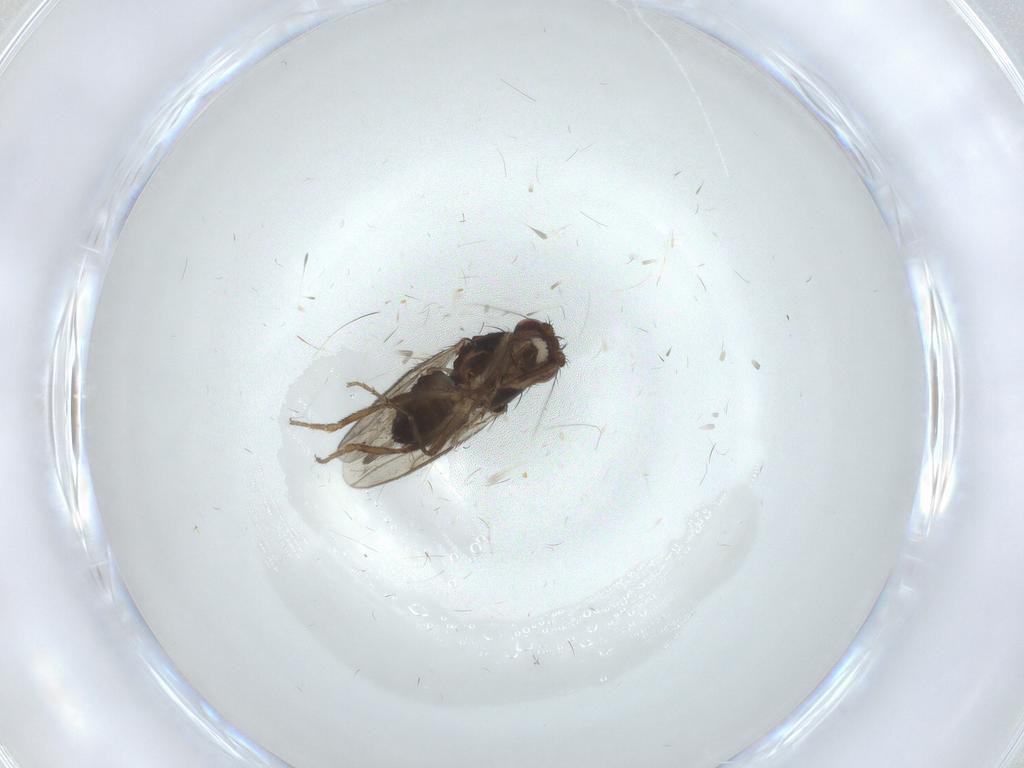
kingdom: Animalia
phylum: Arthropoda
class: Insecta
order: Diptera
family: Sphaeroceridae
